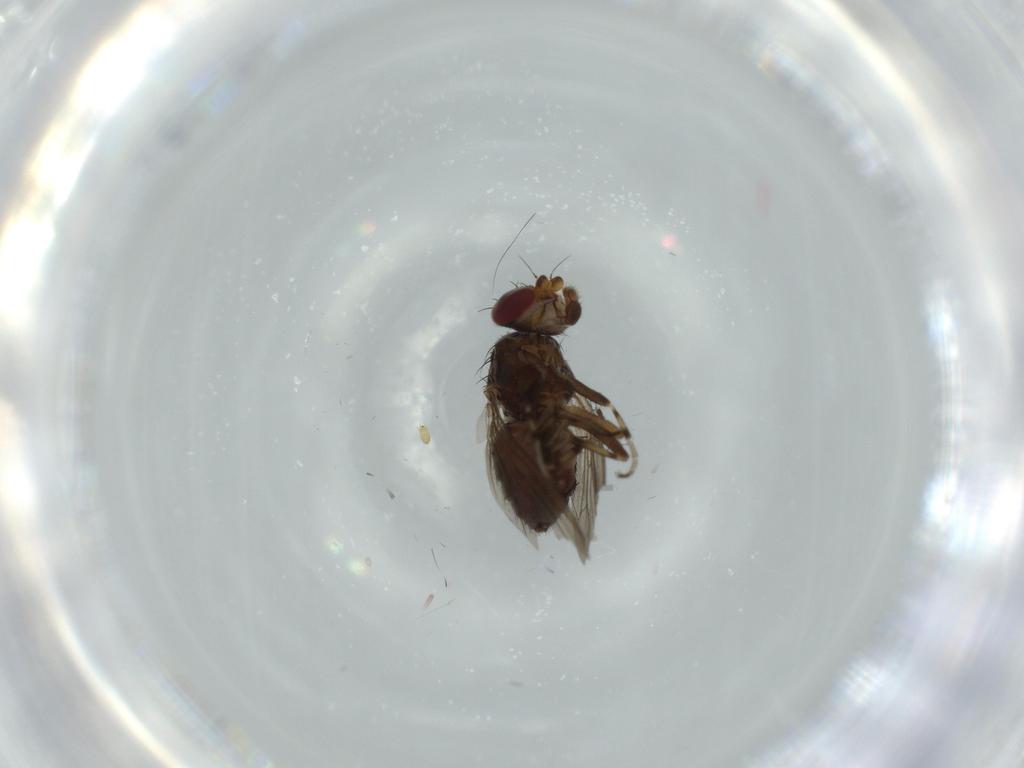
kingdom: Animalia
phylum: Arthropoda
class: Insecta
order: Diptera
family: Heleomyzidae
